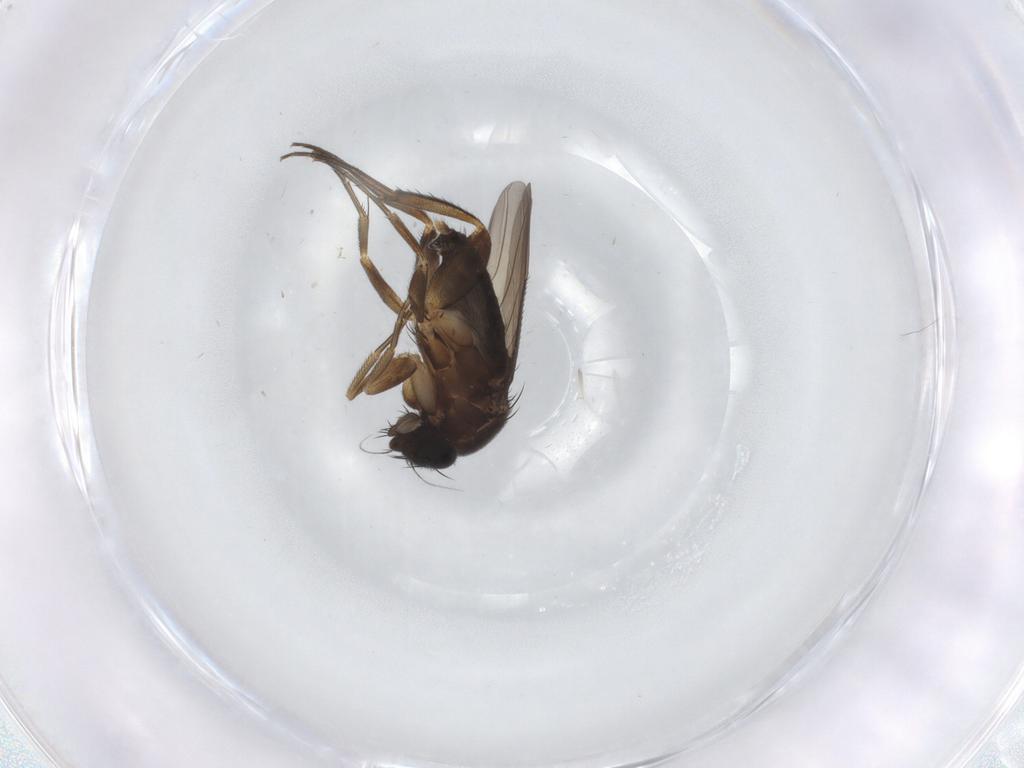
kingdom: Animalia
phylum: Arthropoda
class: Insecta
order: Diptera
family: Phoridae
